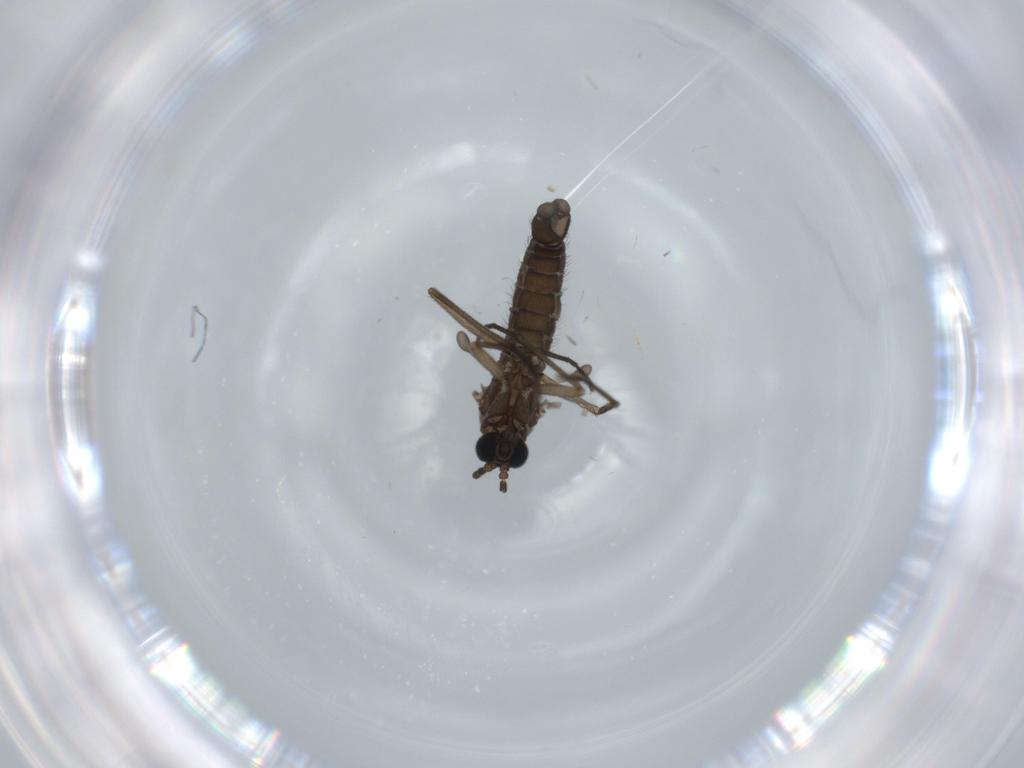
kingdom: Animalia
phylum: Arthropoda
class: Insecta
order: Diptera
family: Sciaridae
